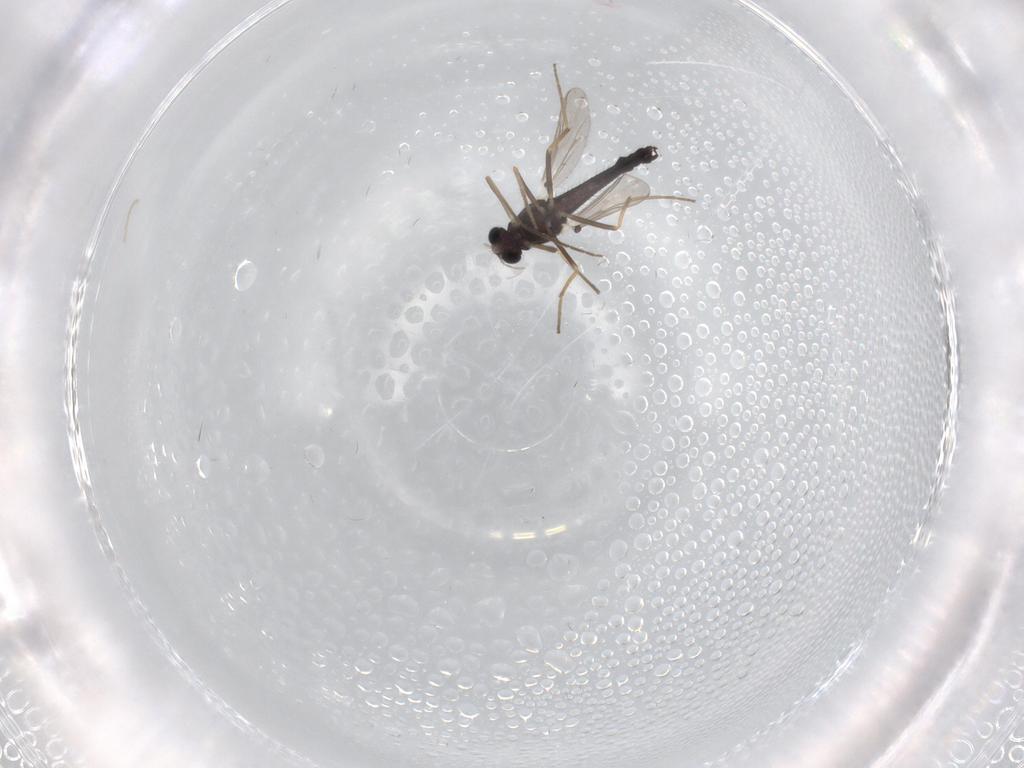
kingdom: Animalia
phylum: Arthropoda
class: Insecta
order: Diptera
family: Chironomidae
